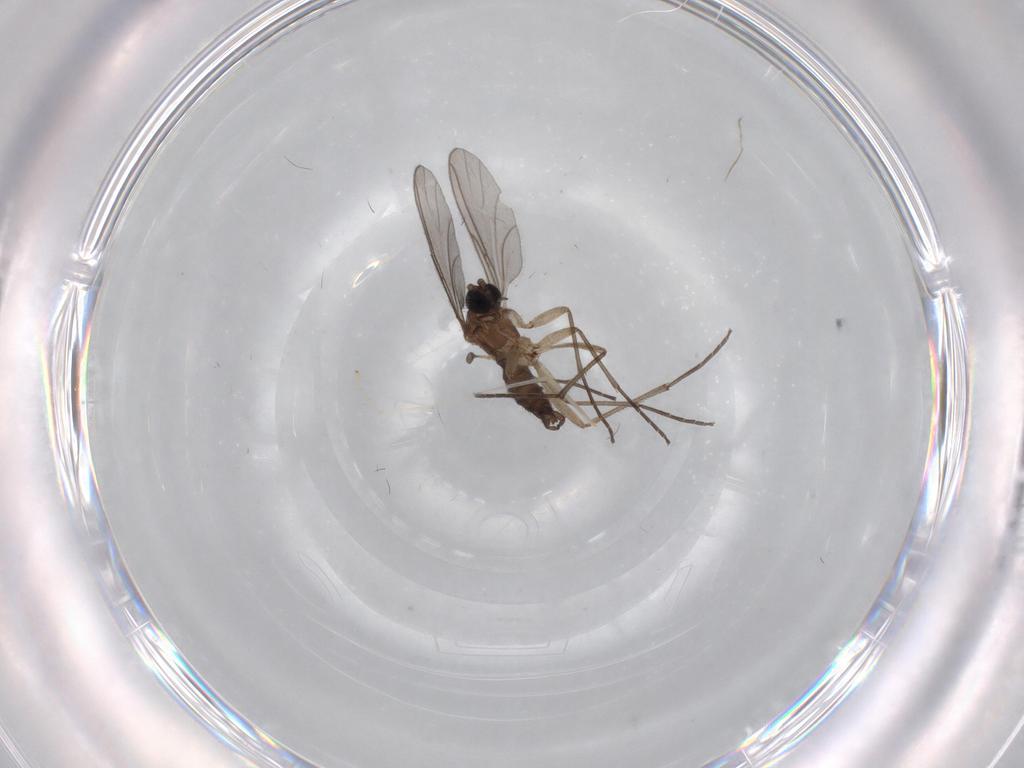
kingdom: Animalia
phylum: Arthropoda
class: Insecta
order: Diptera
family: Sciaridae
